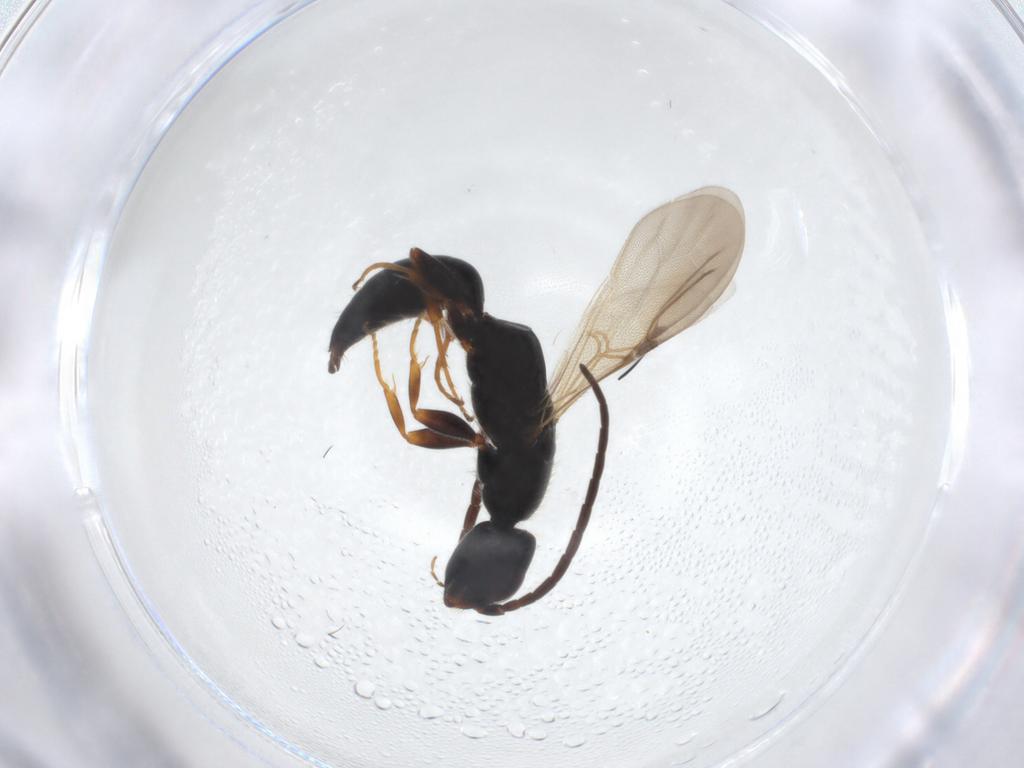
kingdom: Animalia
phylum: Arthropoda
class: Insecta
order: Hymenoptera
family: Bethylidae
